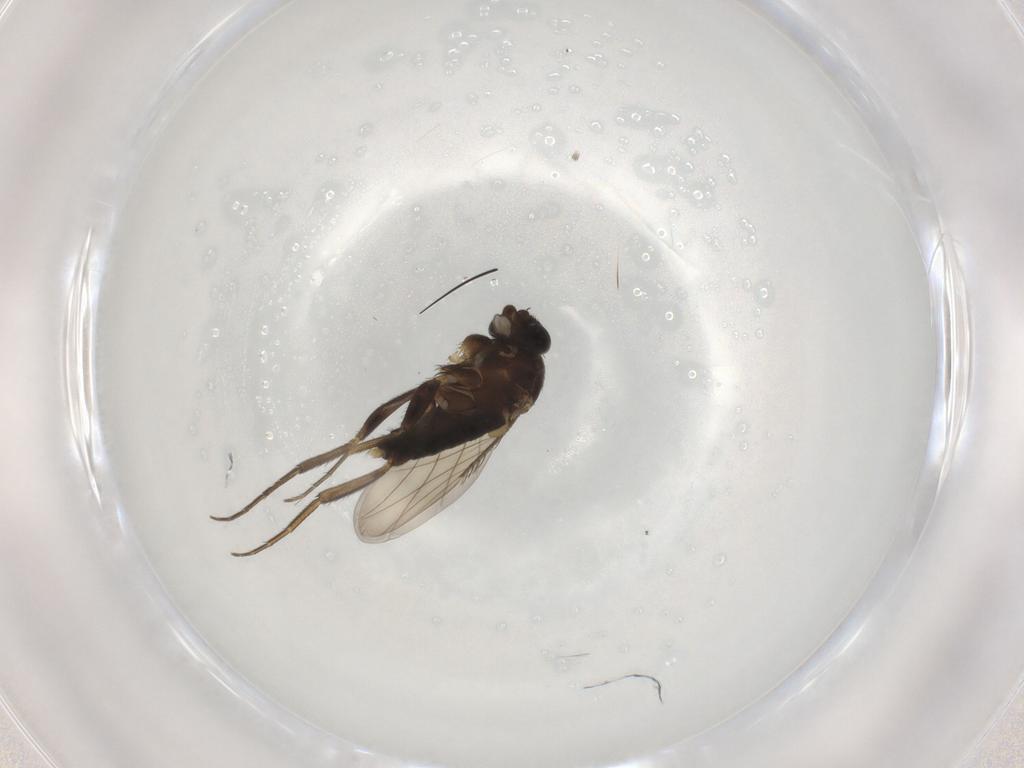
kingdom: Animalia
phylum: Arthropoda
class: Insecta
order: Diptera
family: Phoridae
